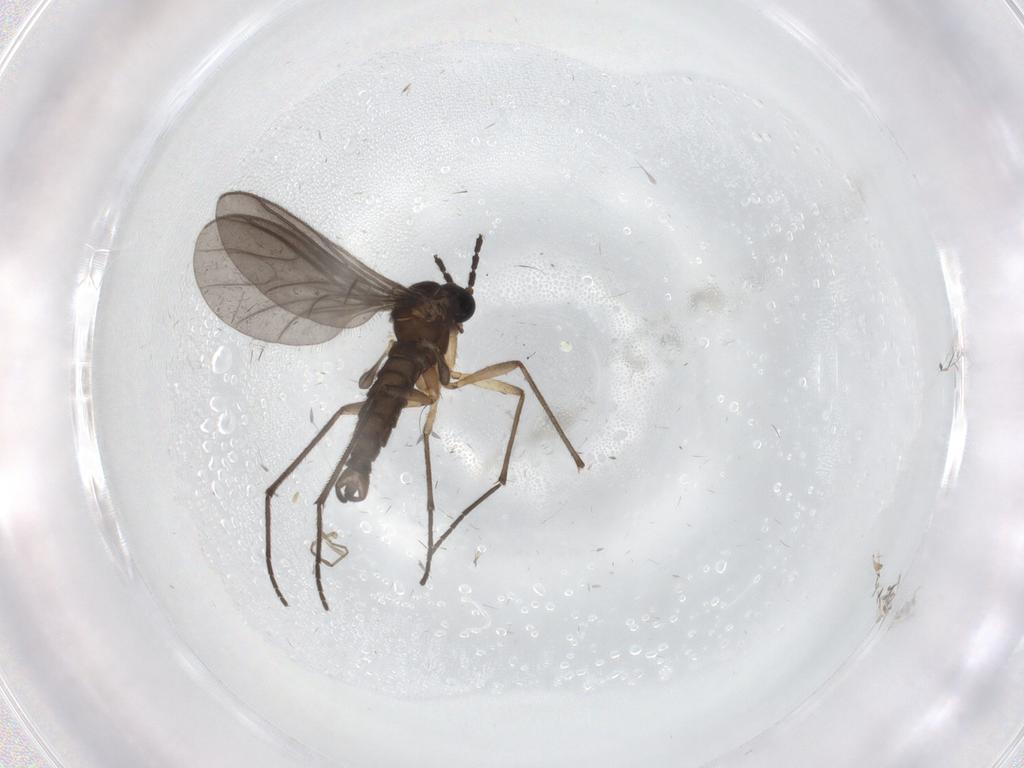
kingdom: Animalia
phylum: Arthropoda
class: Insecta
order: Diptera
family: Sciaridae
